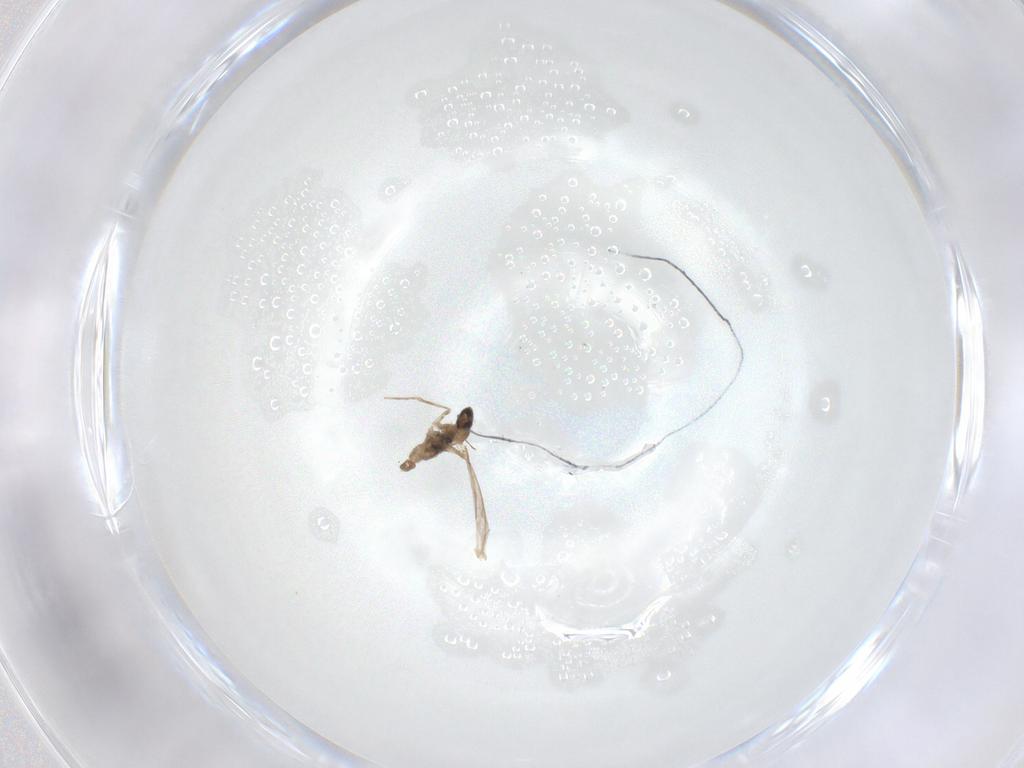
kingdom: Animalia
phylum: Arthropoda
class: Insecta
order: Diptera
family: Cecidomyiidae
